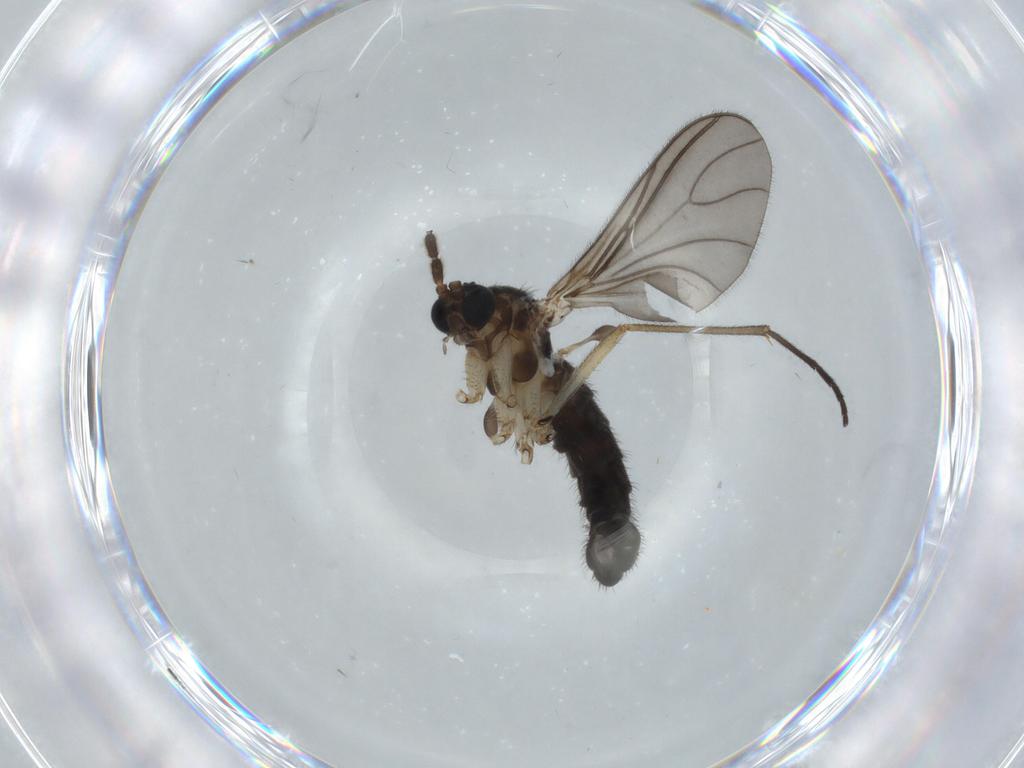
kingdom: Animalia
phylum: Arthropoda
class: Insecta
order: Diptera
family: Sciaridae
